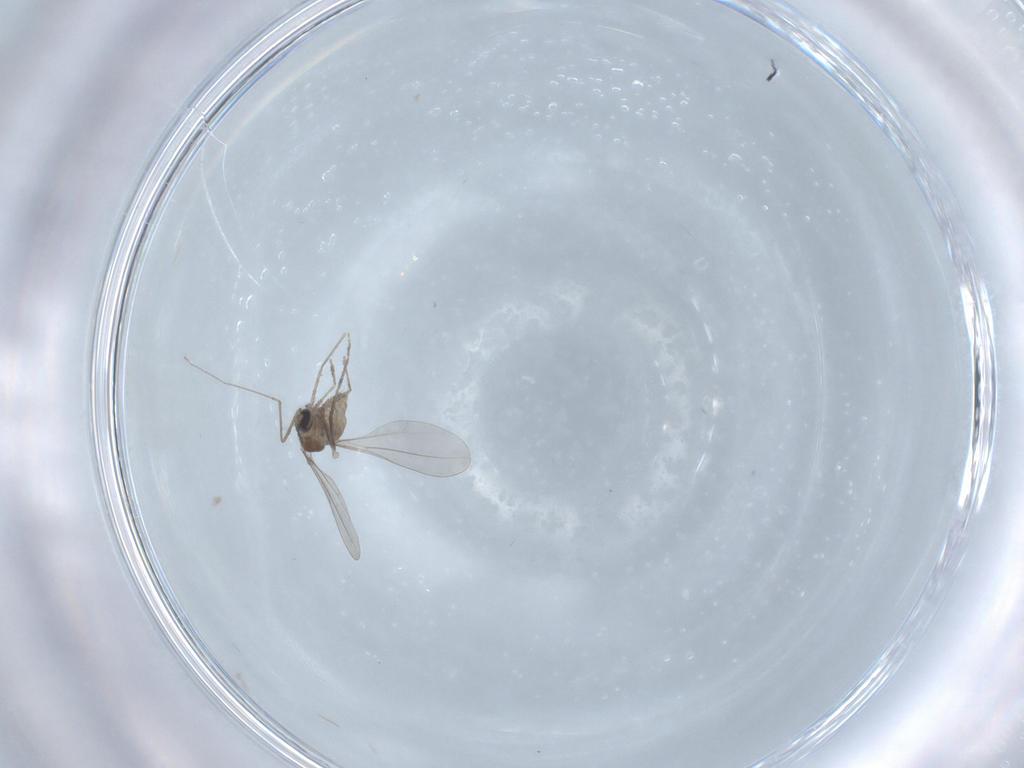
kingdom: Animalia
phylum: Arthropoda
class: Insecta
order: Diptera
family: Cecidomyiidae
